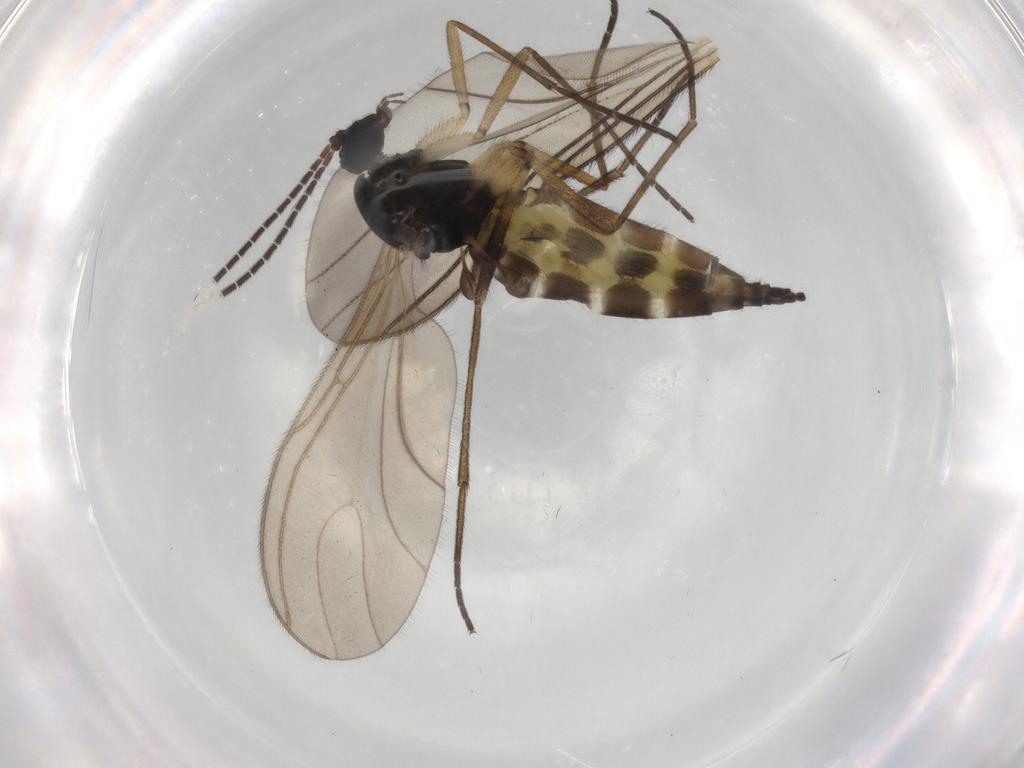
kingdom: Animalia
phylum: Arthropoda
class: Insecta
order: Diptera
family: Sciaridae
